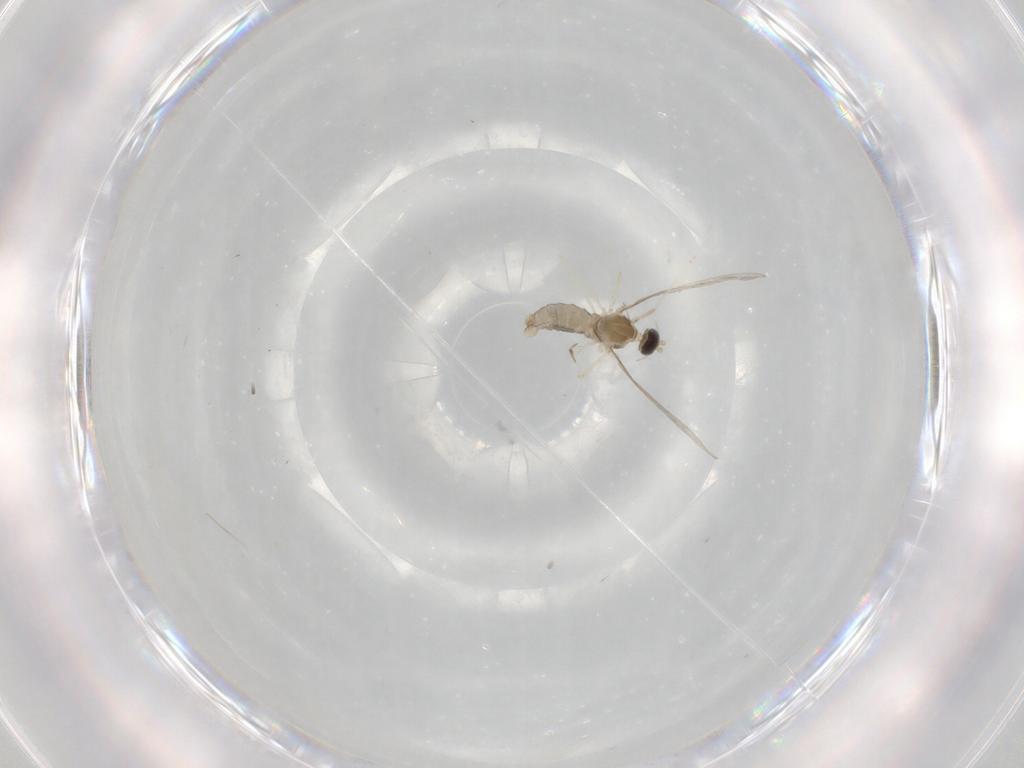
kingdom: Animalia
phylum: Arthropoda
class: Insecta
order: Diptera
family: Cecidomyiidae
